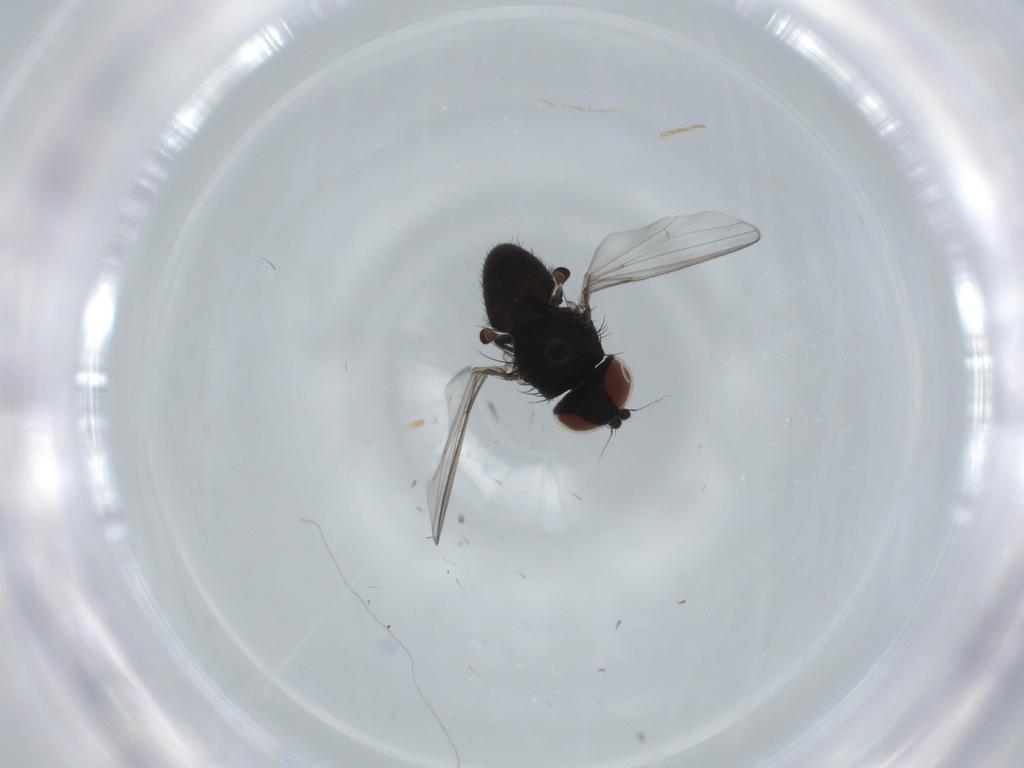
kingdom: Animalia
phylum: Arthropoda
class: Insecta
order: Diptera
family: Milichiidae
